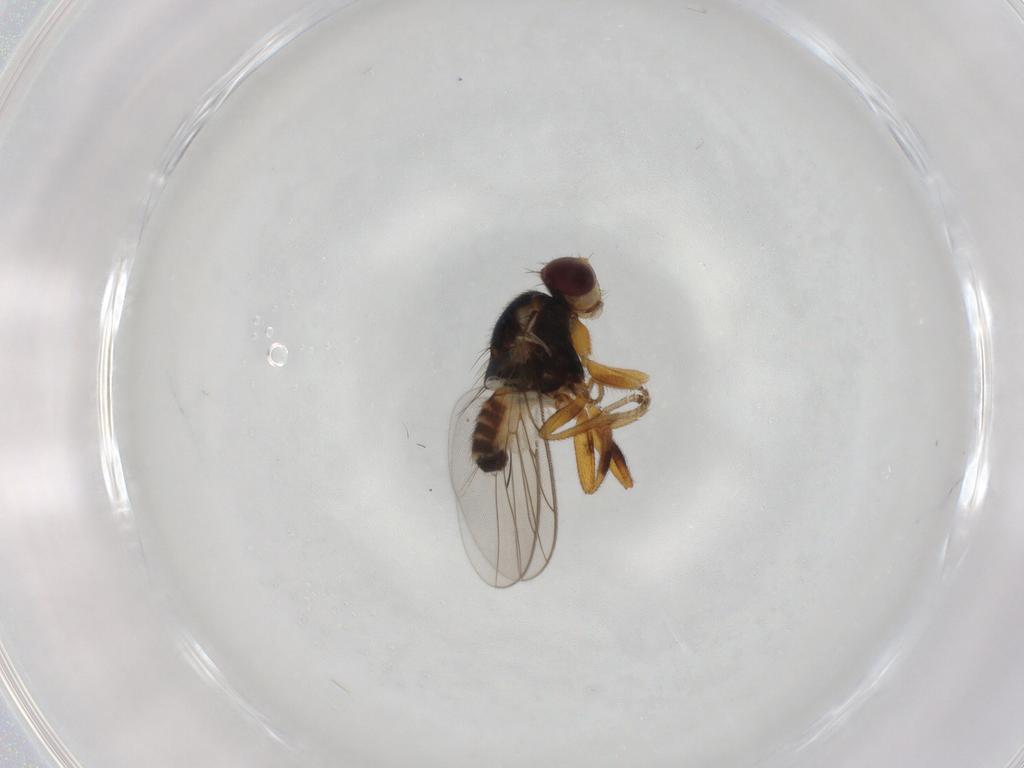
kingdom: Animalia
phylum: Arthropoda
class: Insecta
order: Diptera
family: Chloropidae
